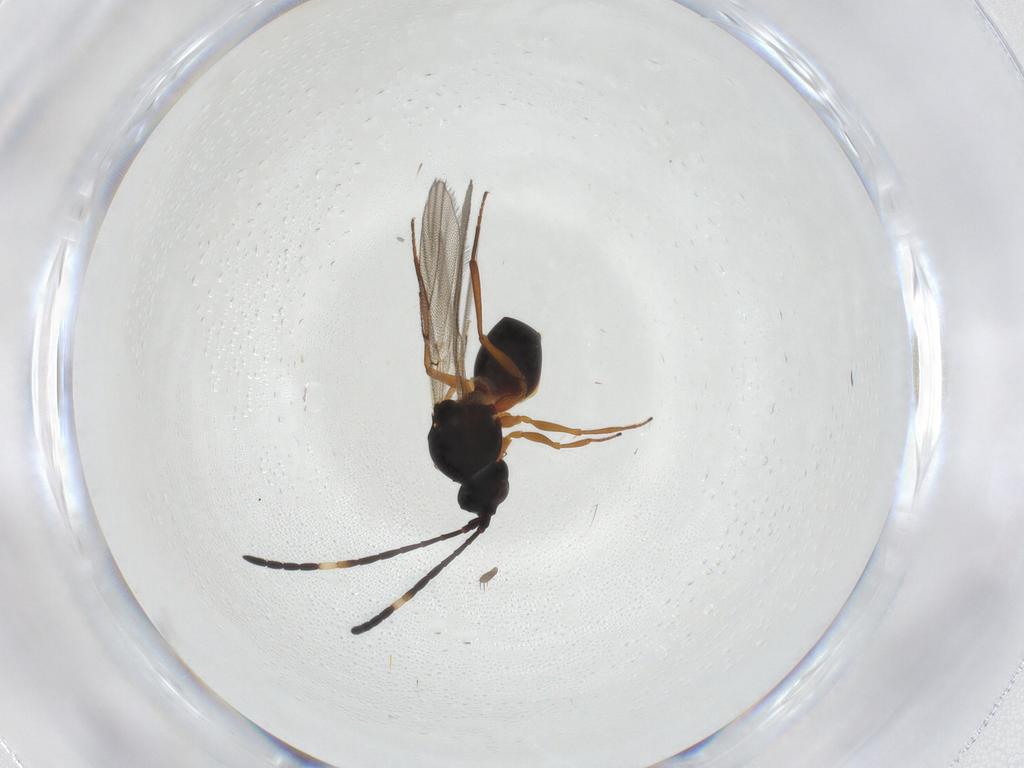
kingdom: Animalia
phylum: Arthropoda
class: Insecta
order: Hymenoptera
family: Figitidae
